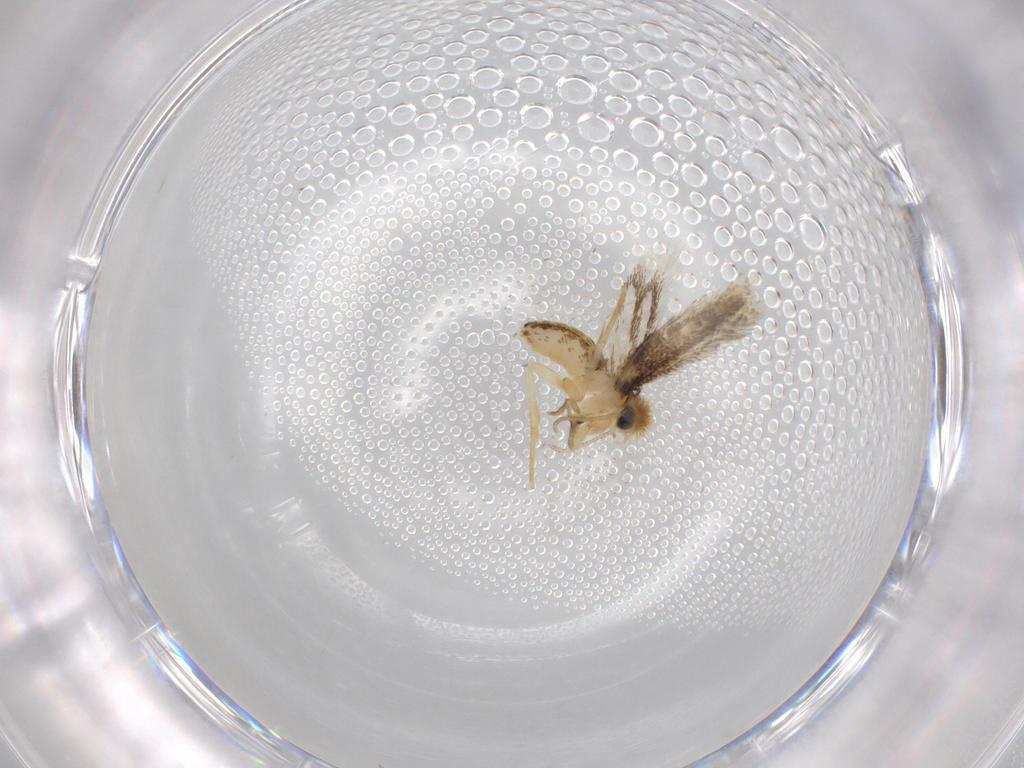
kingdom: Animalia
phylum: Arthropoda
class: Insecta
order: Lepidoptera
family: Nepticulidae
